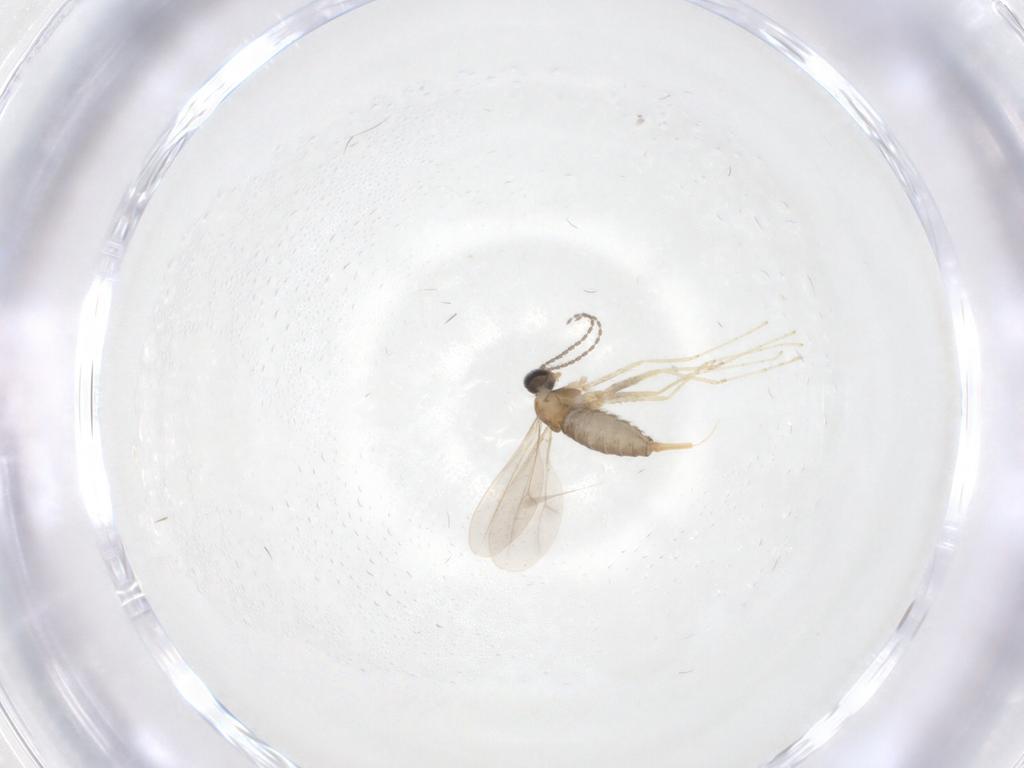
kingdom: Animalia
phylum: Arthropoda
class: Insecta
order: Diptera
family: Cecidomyiidae
